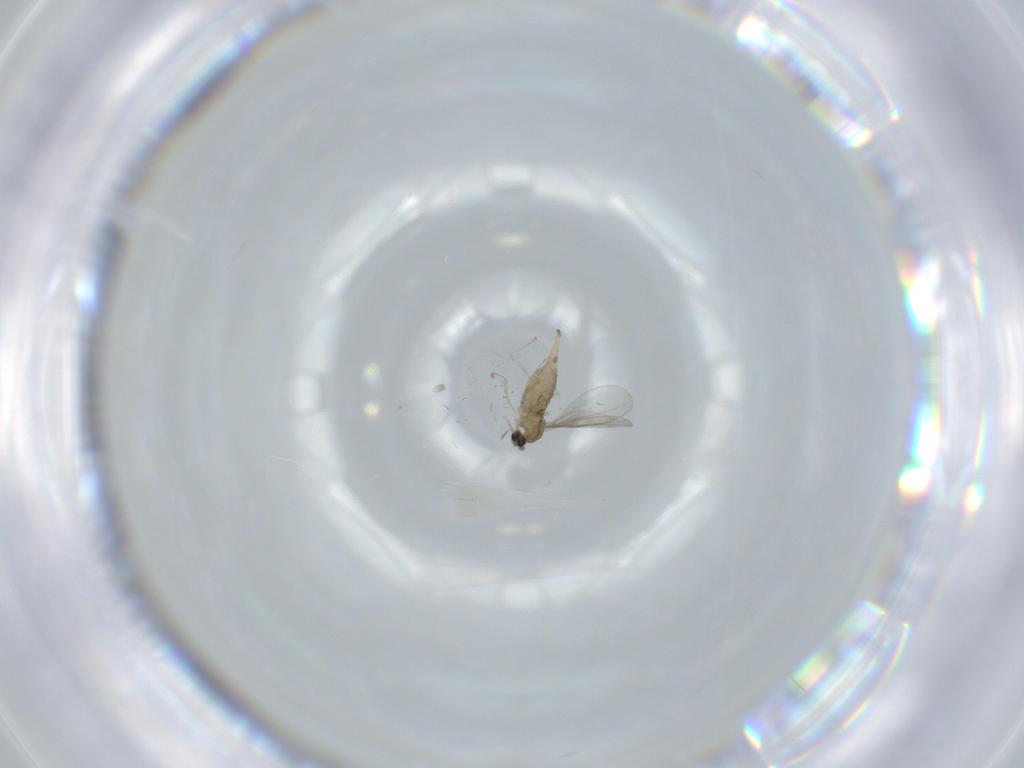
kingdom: Animalia
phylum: Arthropoda
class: Insecta
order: Diptera
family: Cecidomyiidae
